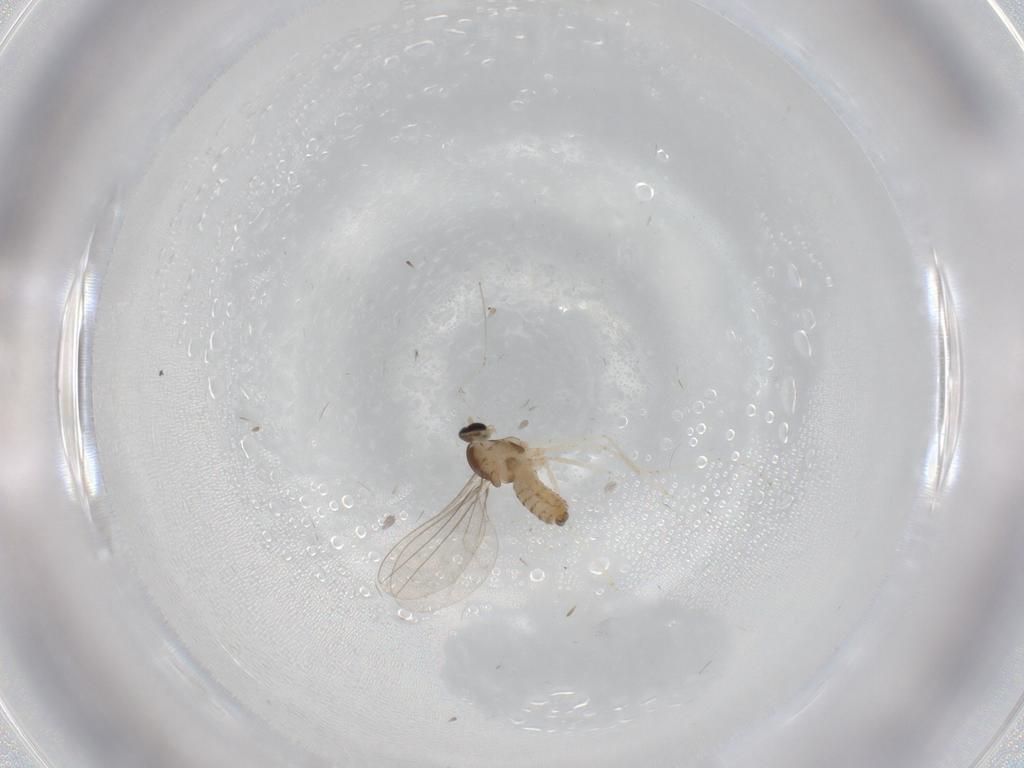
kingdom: Animalia
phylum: Arthropoda
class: Insecta
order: Diptera
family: Cecidomyiidae
